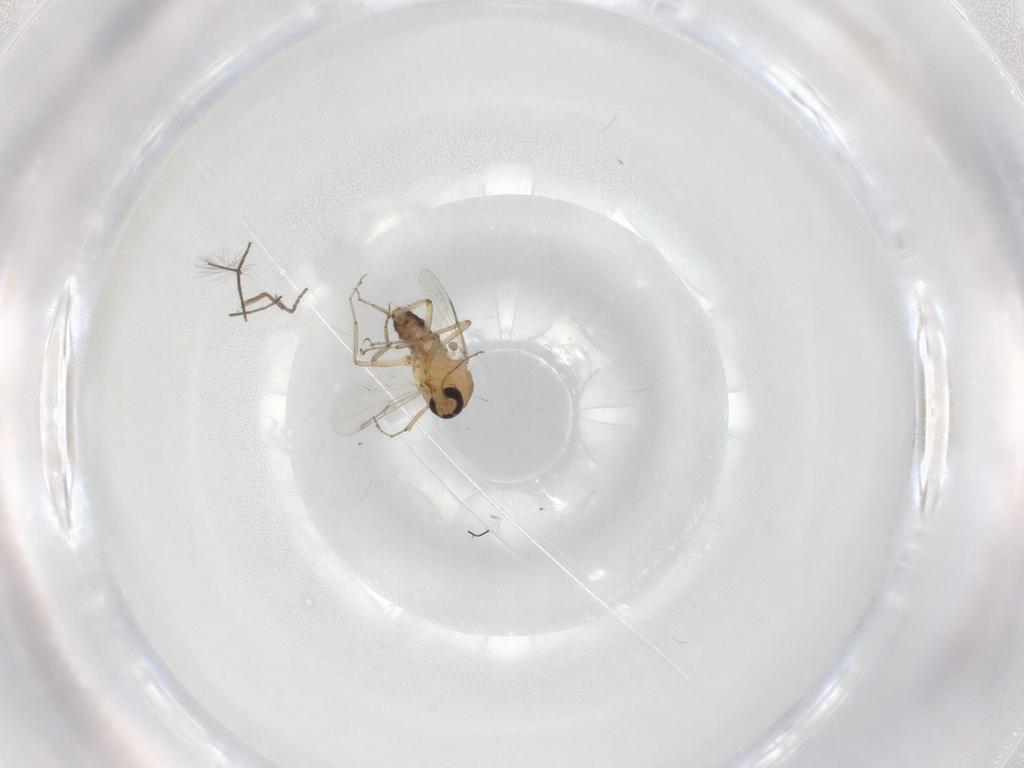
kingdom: Animalia
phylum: Arthropoda
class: Insecta
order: Diptera
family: Ceratopogonidae
